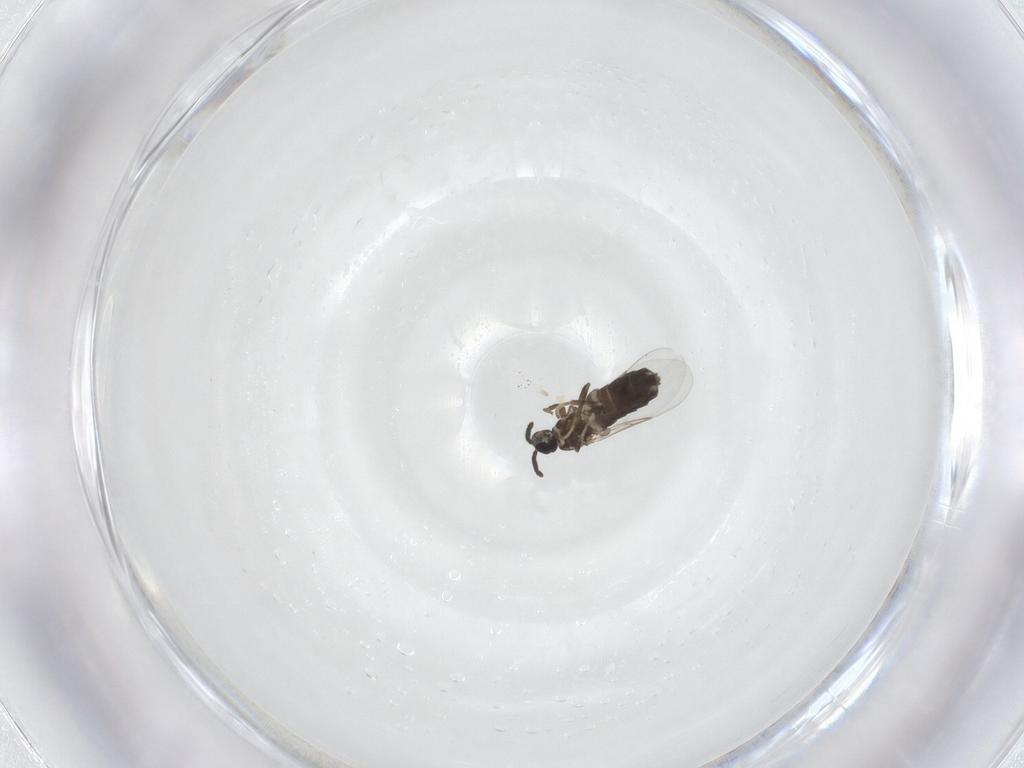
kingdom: Animalia
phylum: Arthropoda
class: Insecta
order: Diptera
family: Scatopsidae
